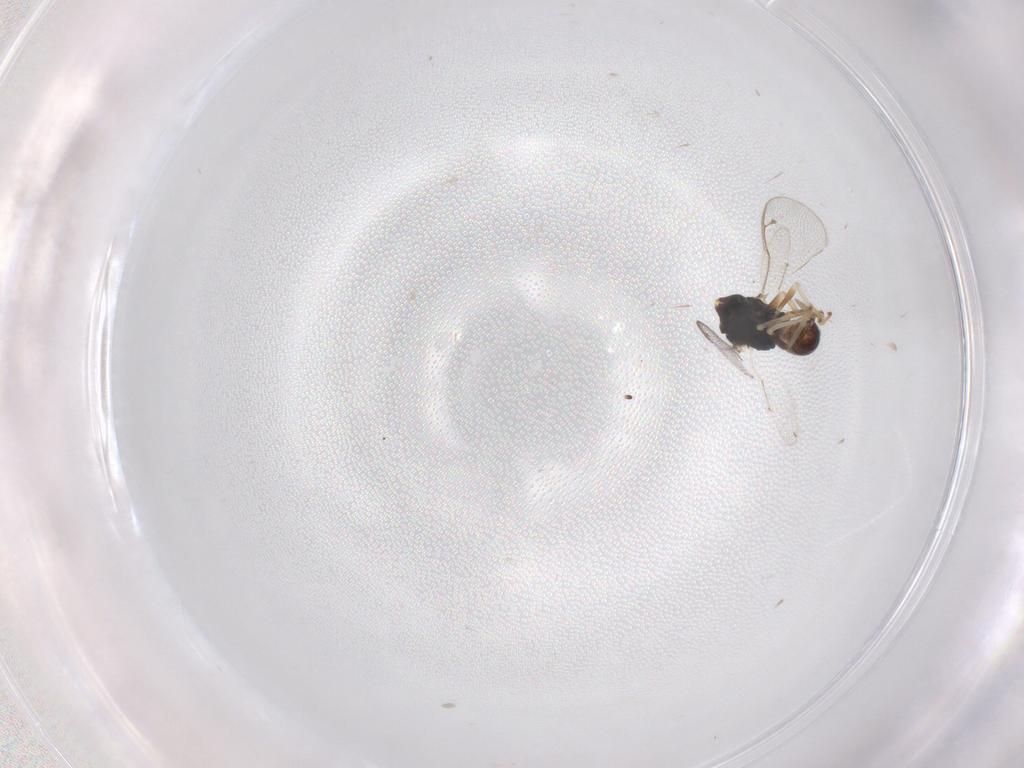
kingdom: Animalia
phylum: Arthropoda
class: Insecta
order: Hymenoptera
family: Pteromalidae
